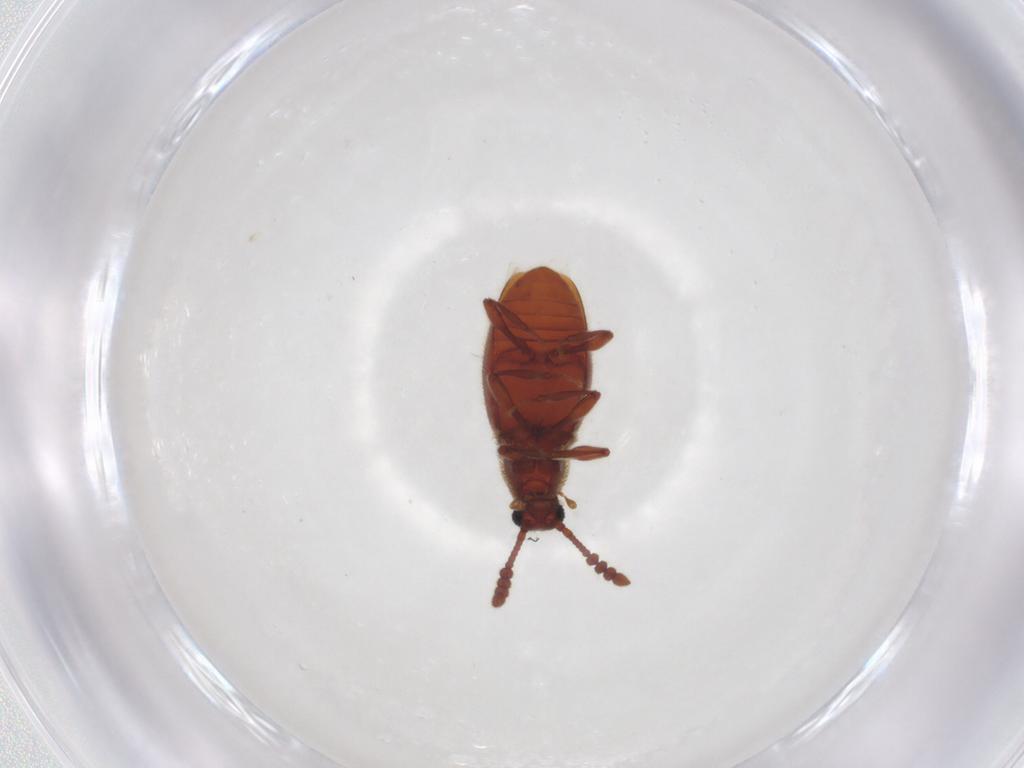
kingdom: Animalia
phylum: Arthropoda
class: Insecta
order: Coleoptera
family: Staphylinidae
